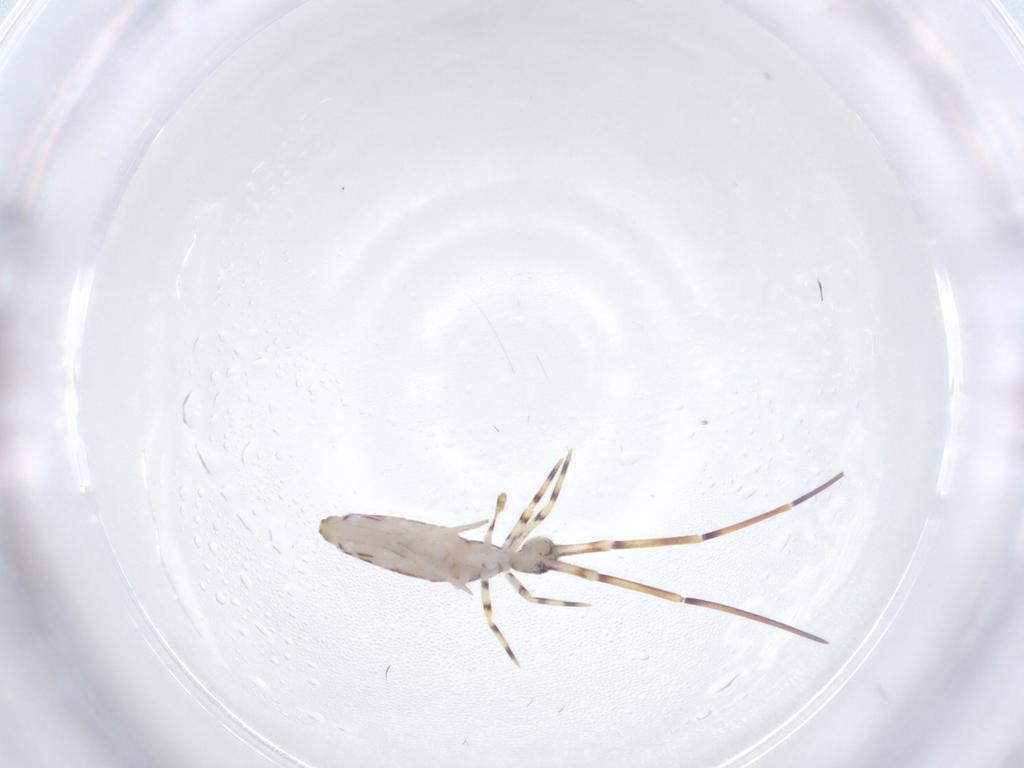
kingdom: Animalia
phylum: Arthropoda
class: Collembola
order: Entomobryomorpha
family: Entomobryidae
